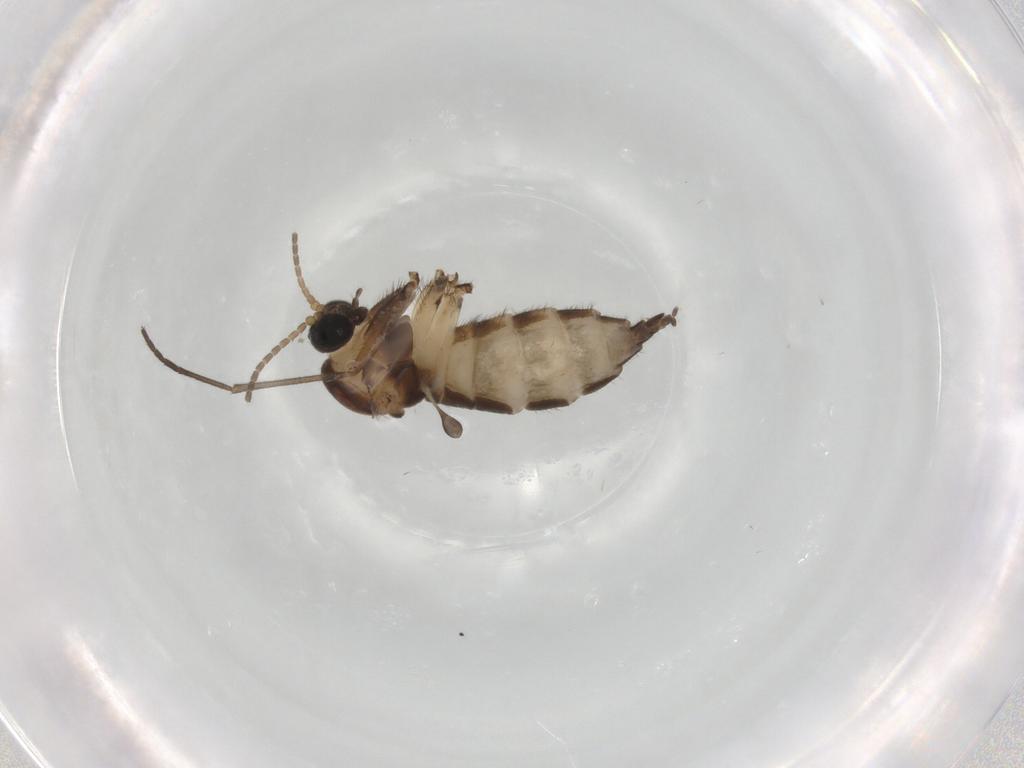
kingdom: Animalia
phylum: Arthropoda
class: Insecta
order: Diptera
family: Sciaridae
